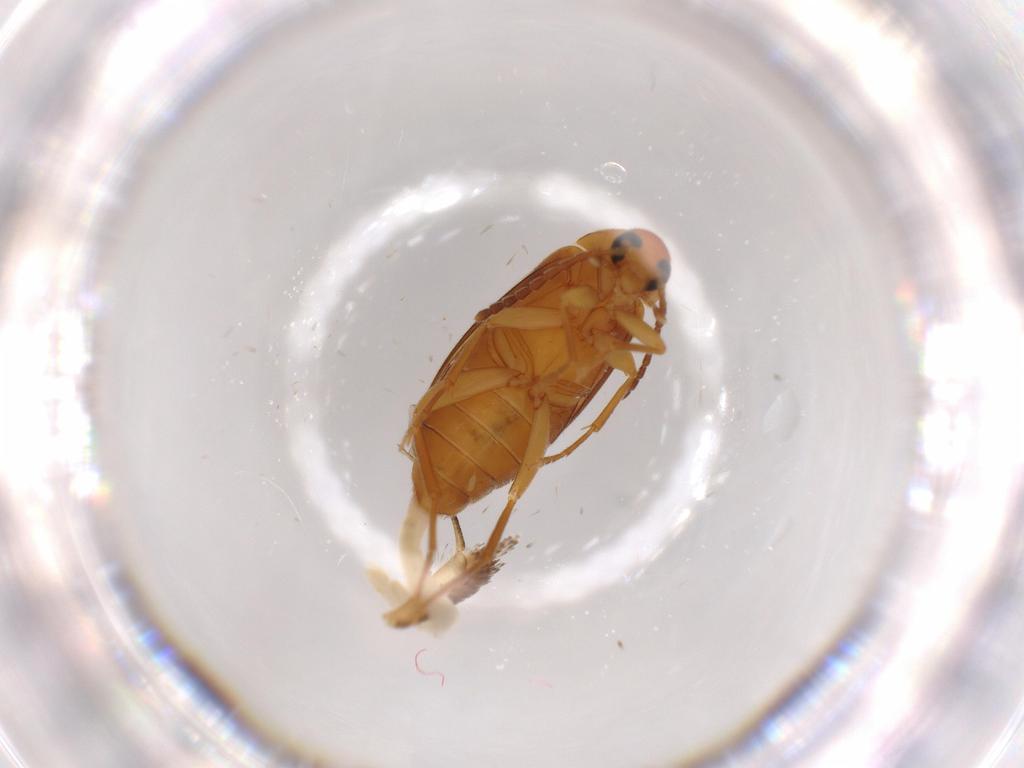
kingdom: Animalia
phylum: Arthropoda
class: Insecta
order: Coleoptera
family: Scraptiidae
